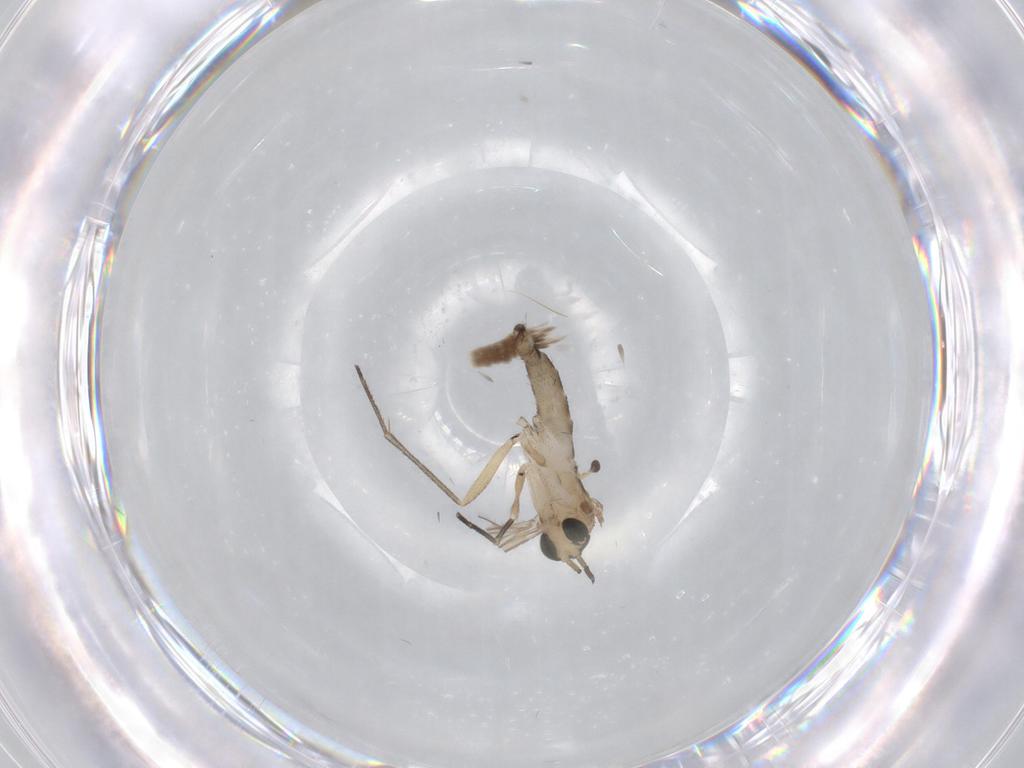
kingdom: Animalia
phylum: Arthropoda
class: Insecta
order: Diptera
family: Sciaridae
